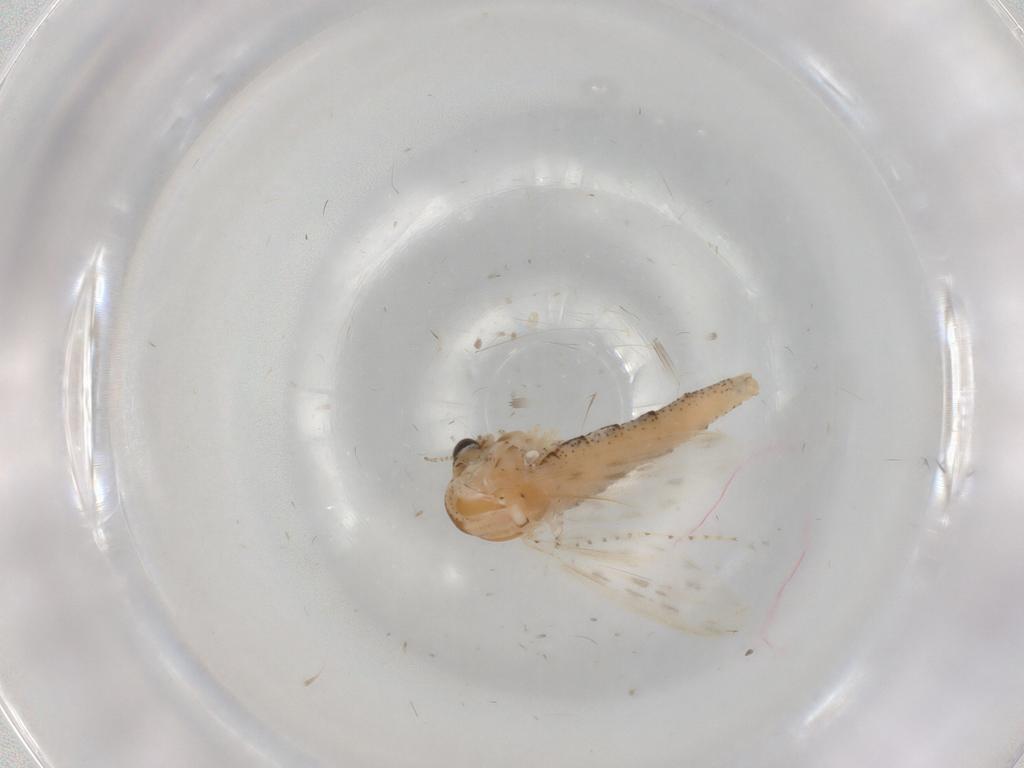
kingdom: Animalia
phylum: Arthropoda
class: Insecta
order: Diptera
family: Chaoboridae
